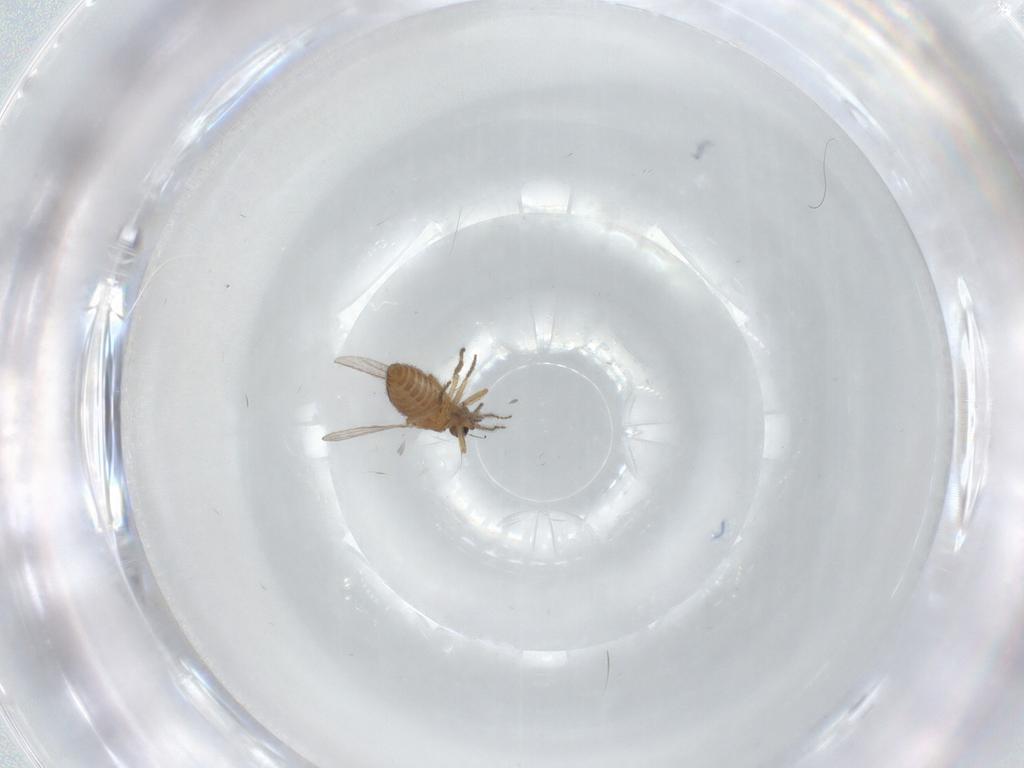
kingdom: Animalia
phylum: Arthropoda
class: Insecta
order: Diptera
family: Ceratopogonidae
